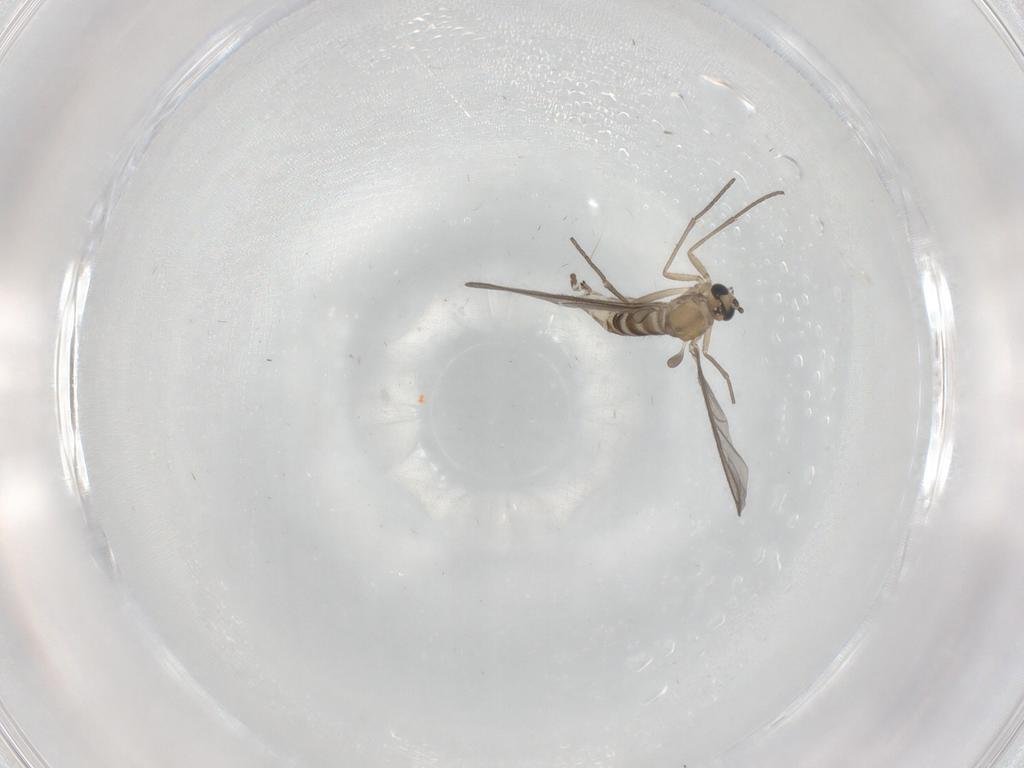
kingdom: Animalia
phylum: Arthropoda
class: Insecta
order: Diptera
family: Sciaridae
